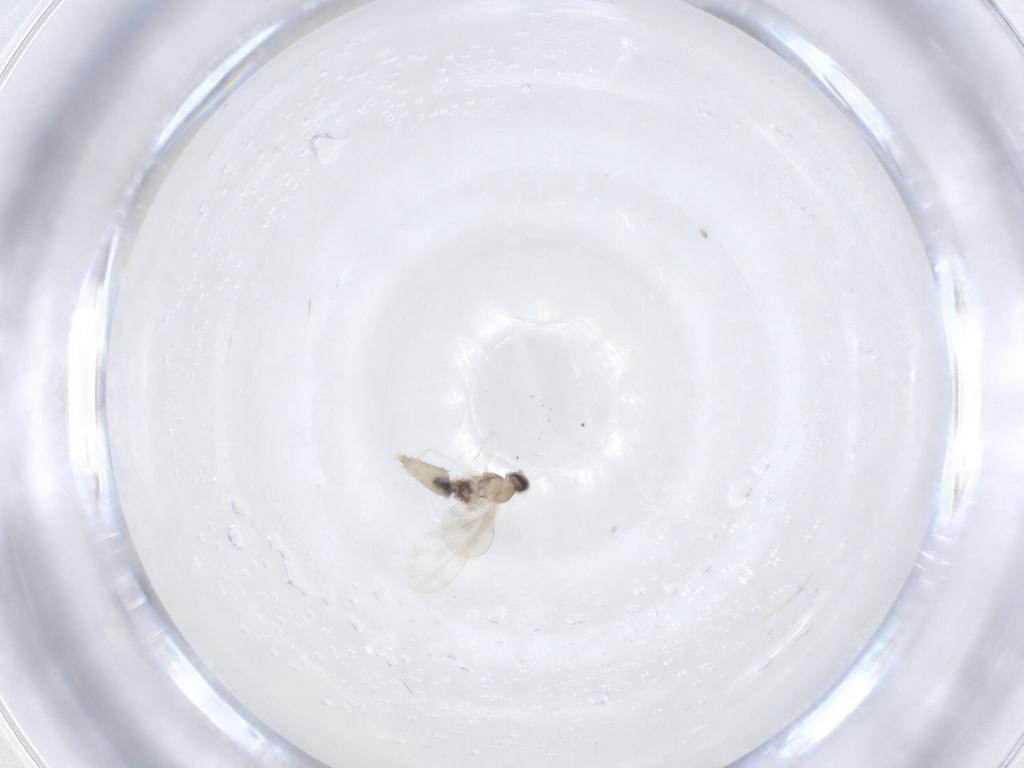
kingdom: Animalia
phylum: Arthropoda
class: Insecta
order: Diptera
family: Cecidomyiidae
